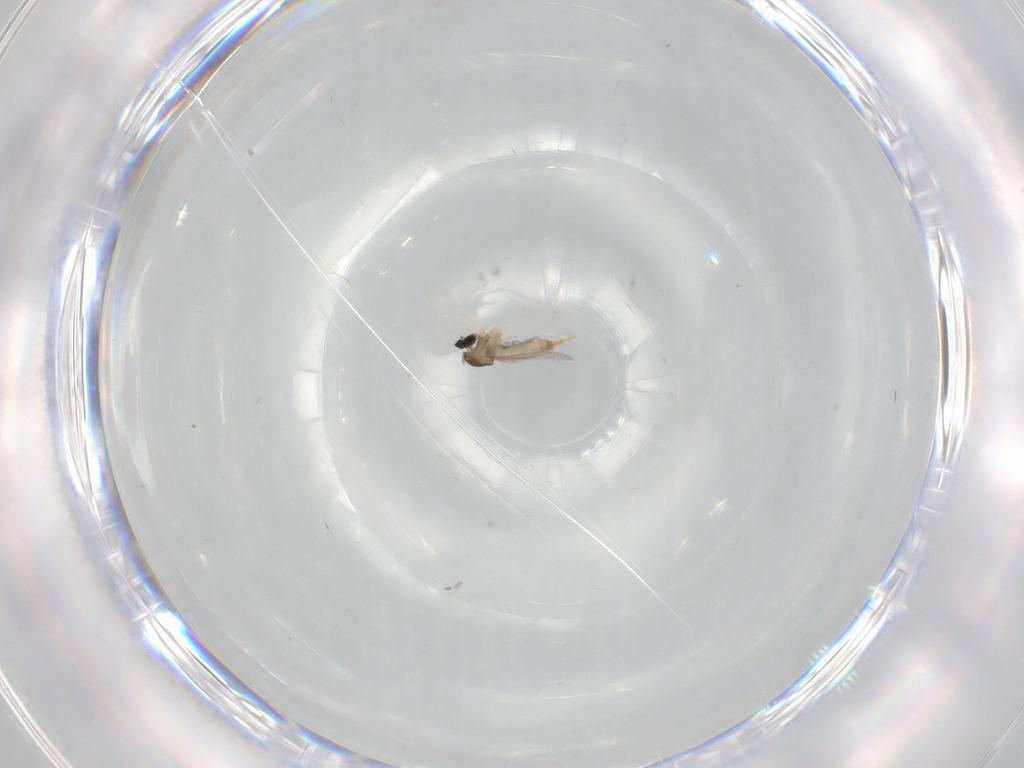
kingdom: Animalia
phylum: Arthropoda
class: Insecta
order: Diptera
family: Cecidomyiidae
